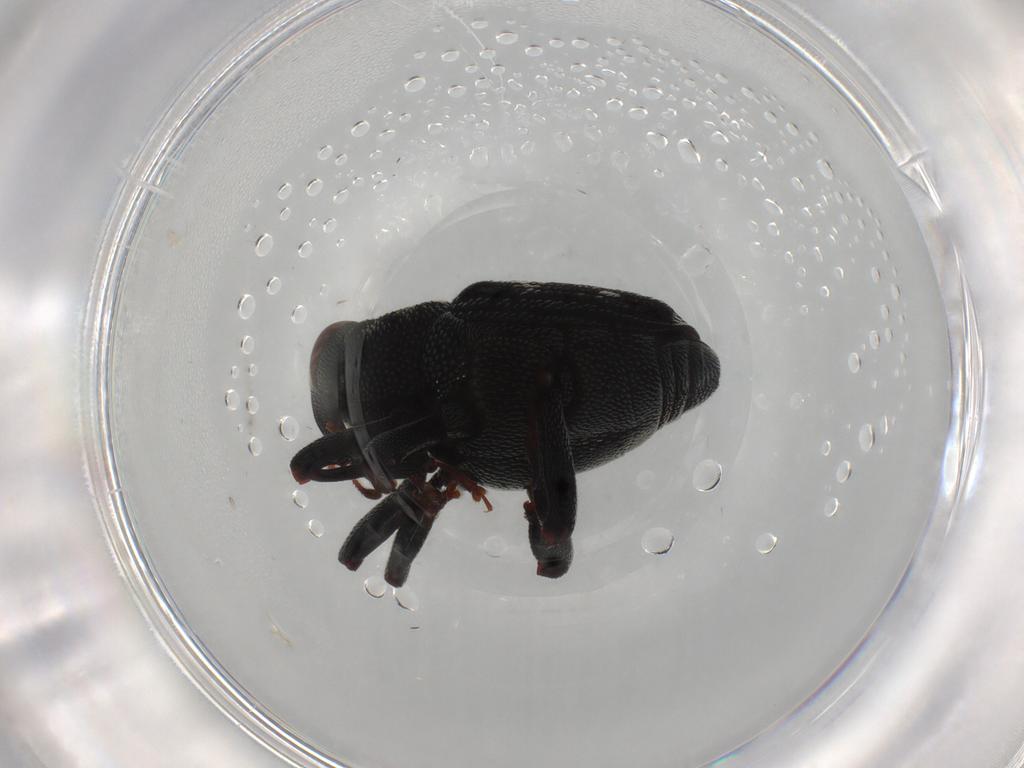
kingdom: Animalia
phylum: Arthropoda
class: Insecta
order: Coleoptera
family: Curculionidae
